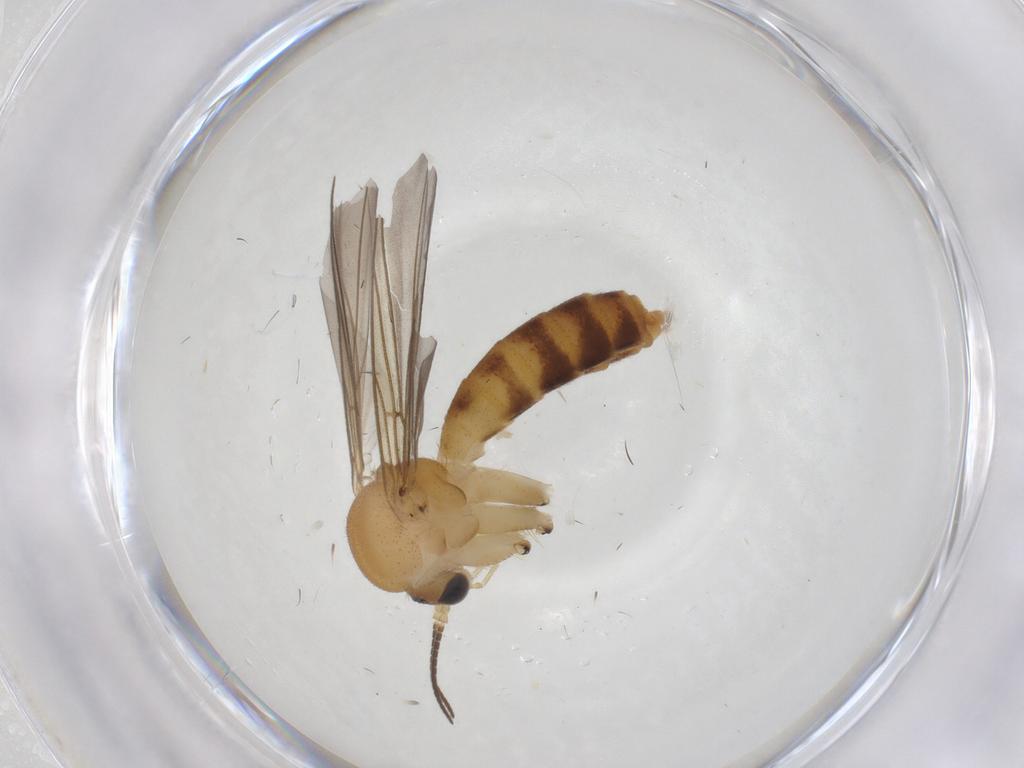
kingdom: Animalia
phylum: Arthropoda
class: Insecta
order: Diptera
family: Mycetophilidae
